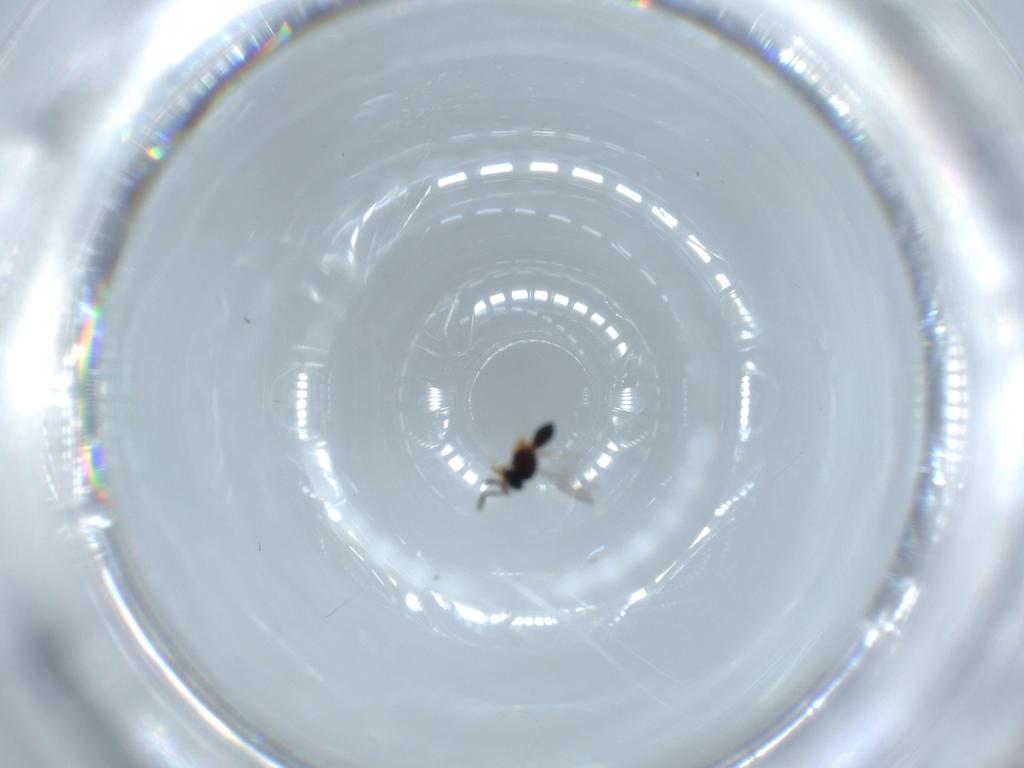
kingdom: Animalia
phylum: Arthropoda
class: Insecta
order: Hymenoptera
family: Scelionidae
